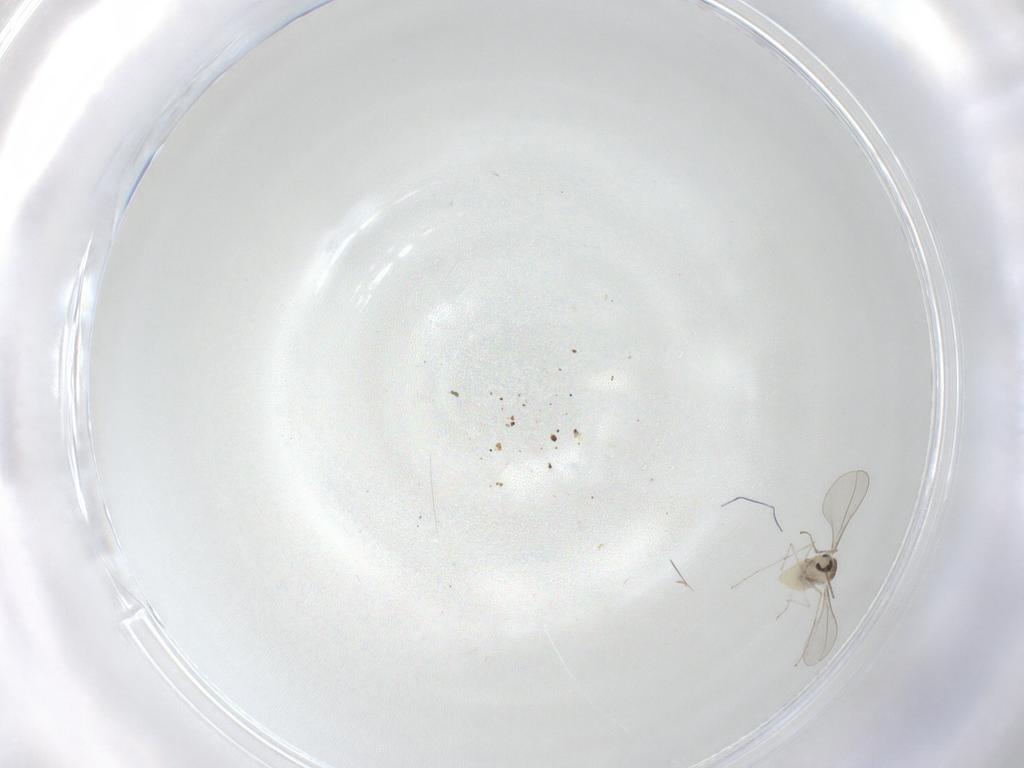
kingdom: Animalia
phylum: Arthropoda
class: Insecta
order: Diptera
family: Cecidomyiidae
